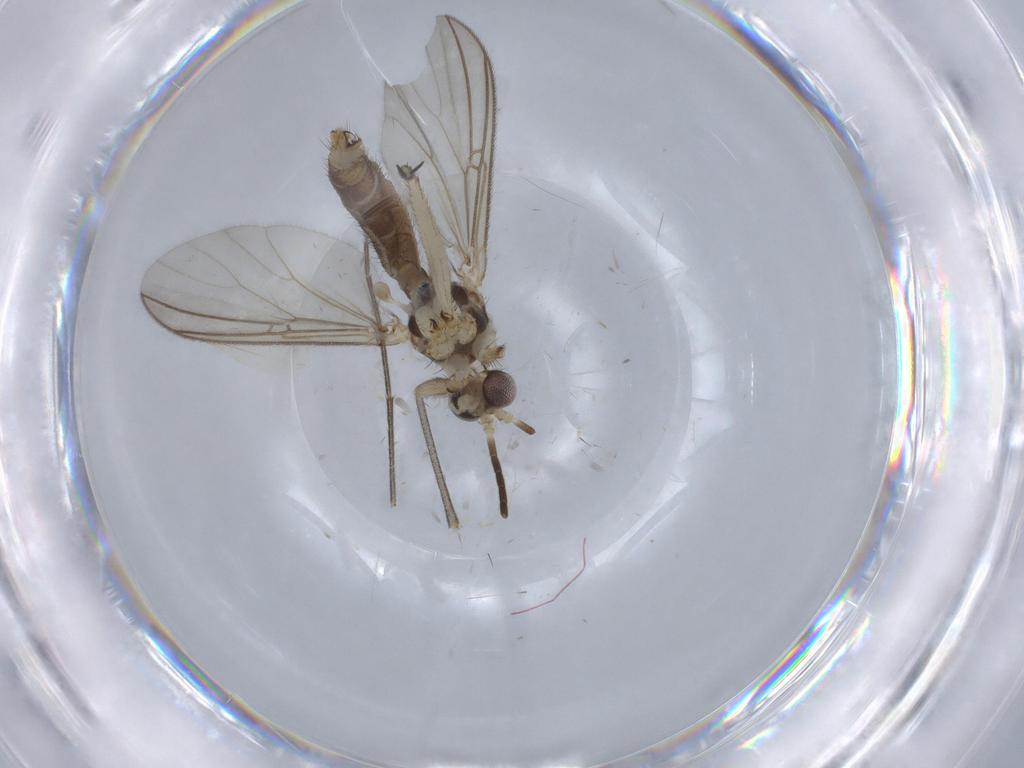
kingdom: Animalia
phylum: Arthropoda
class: Insecta
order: Diptera
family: Mycetophilidae
